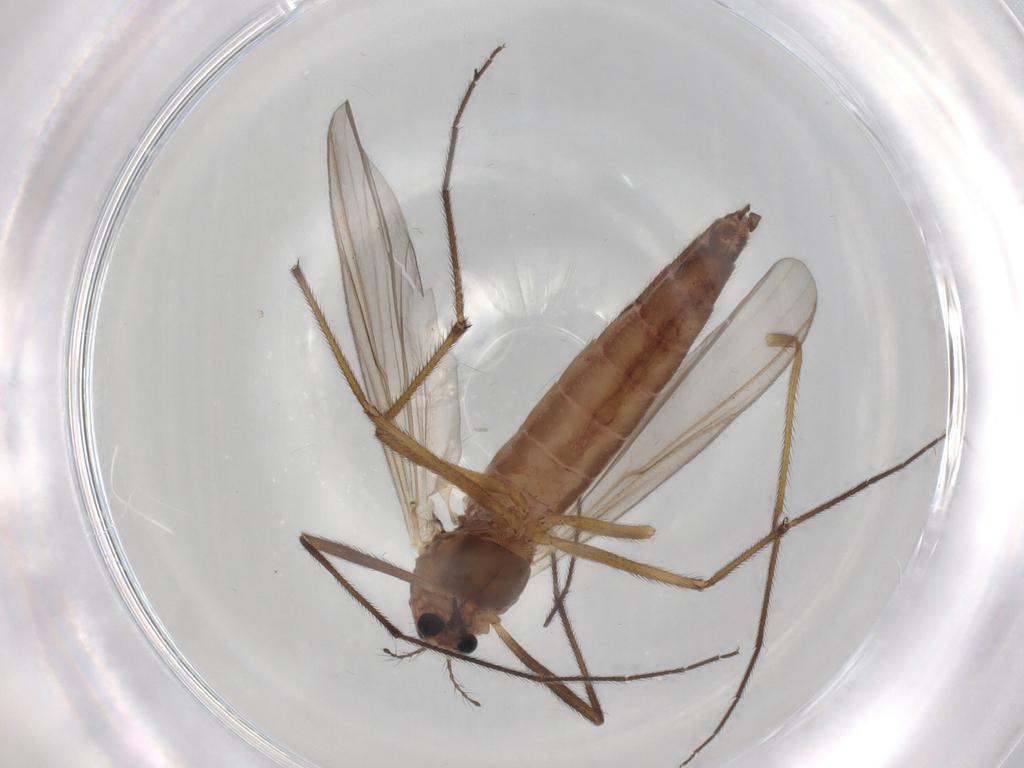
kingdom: Animalia
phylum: Arthropoda
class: Insecta
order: Diptera
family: Chironomidae
